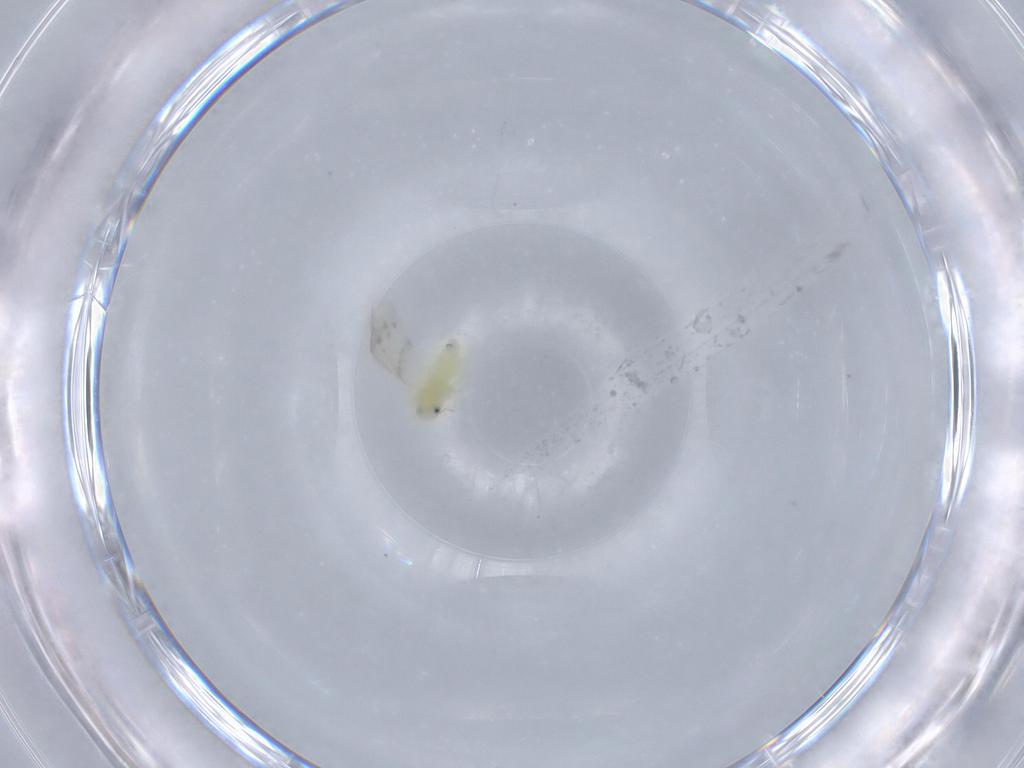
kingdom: Animalia
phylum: Arthropoda
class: Insecta
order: Hemiptera
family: Aleyrodidae
